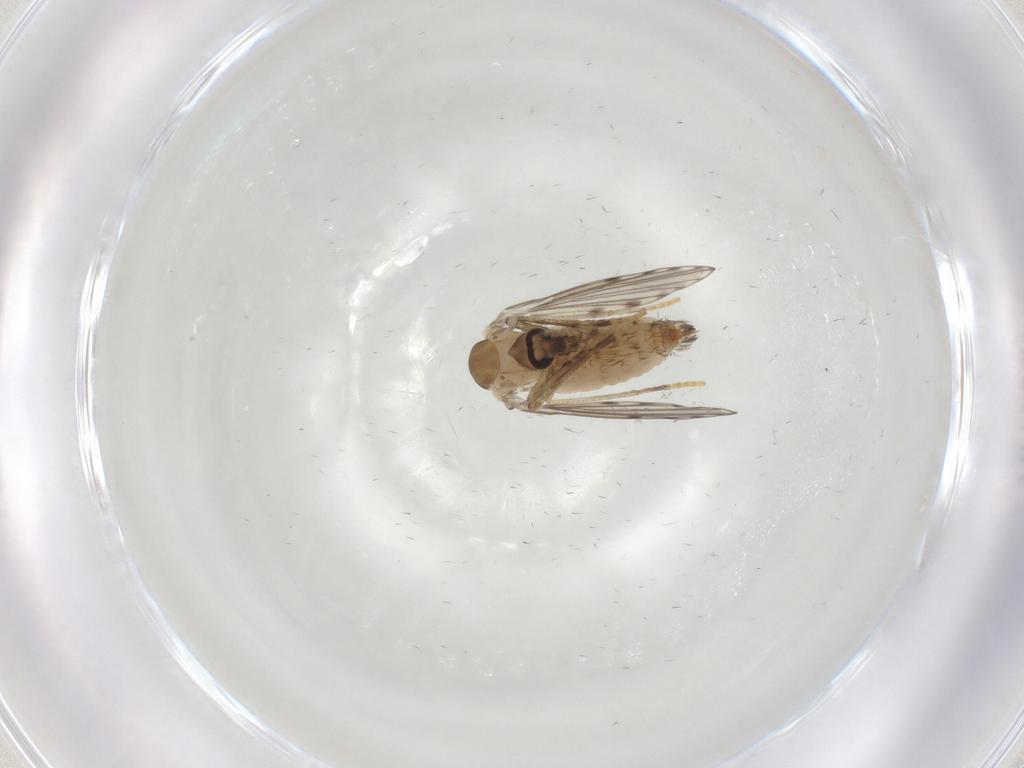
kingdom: Animalia
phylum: Arthropoda
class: Insecta
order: Diptera
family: Psychodidae
